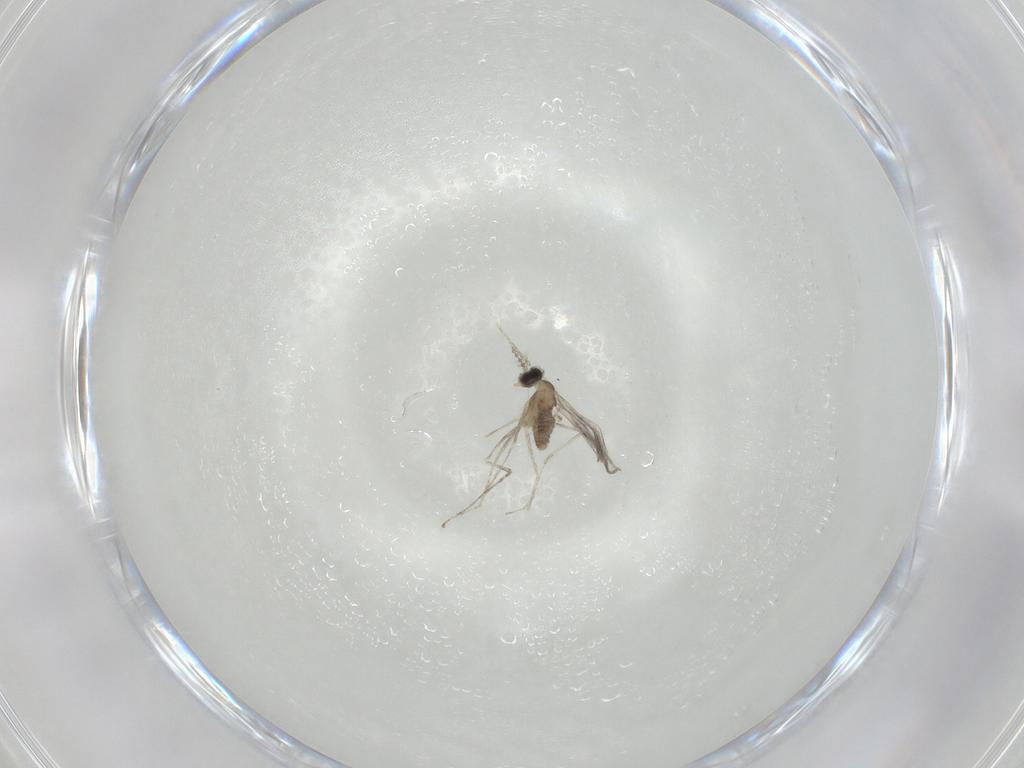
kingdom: Animalia
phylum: Arthropoda
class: Insecta
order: Diptera
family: Cecidomyiidae
